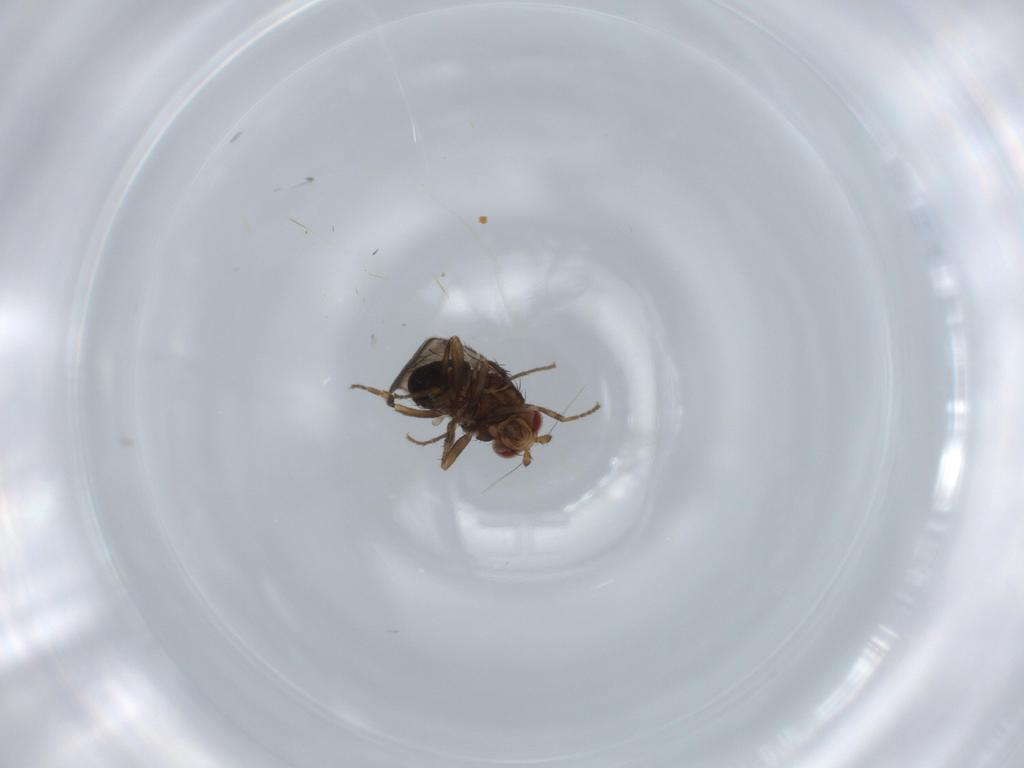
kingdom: Animalia
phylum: Arthropoda
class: Insecta
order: Diptera
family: Sphaeroceridae
